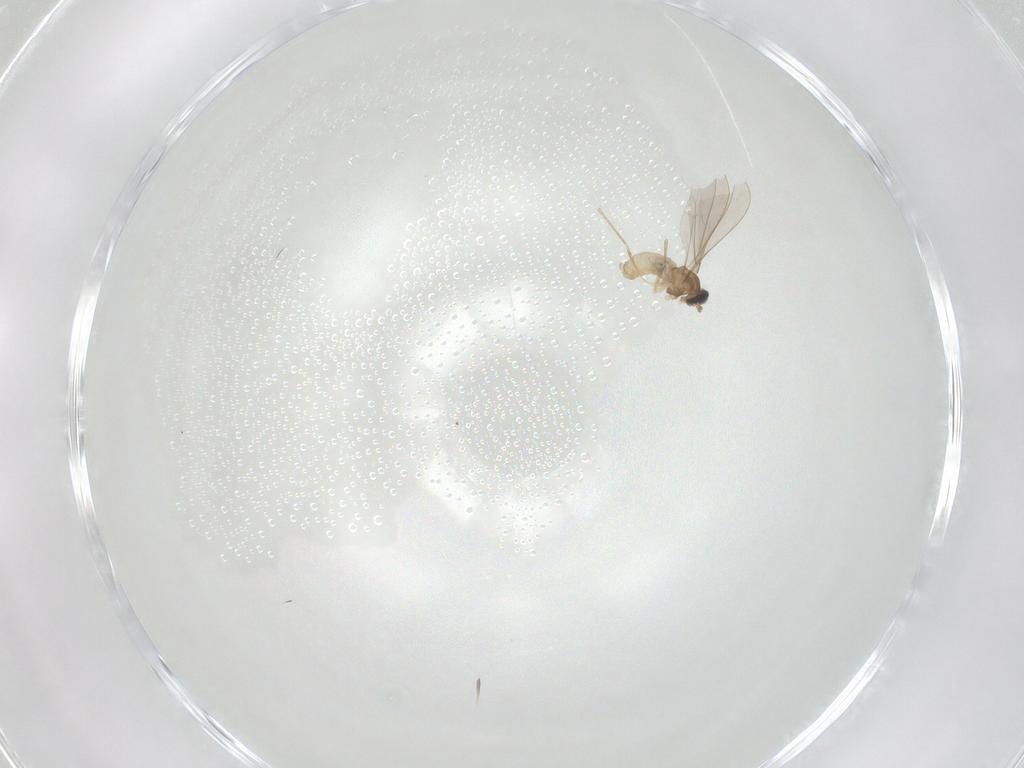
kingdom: Animalia
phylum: Arthropoda
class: Insecta
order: Diptera
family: Cecidomyiidae
